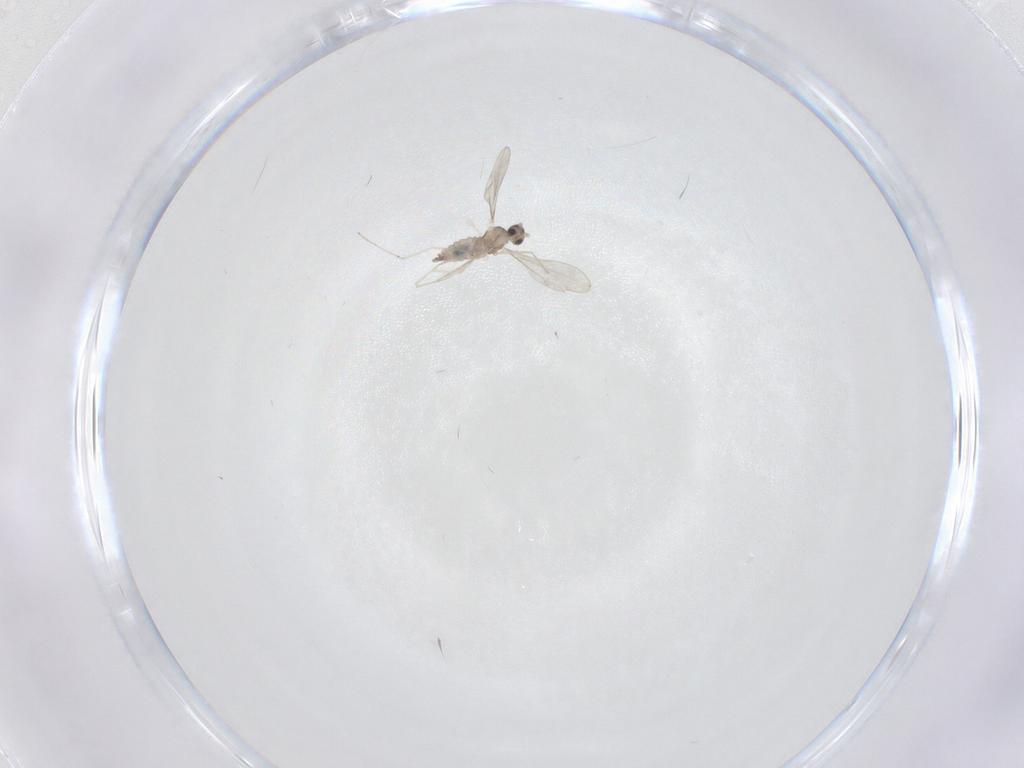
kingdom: Animalia
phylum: Arthropoda
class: Insecta
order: Diptera
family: Cecidomyiidae
